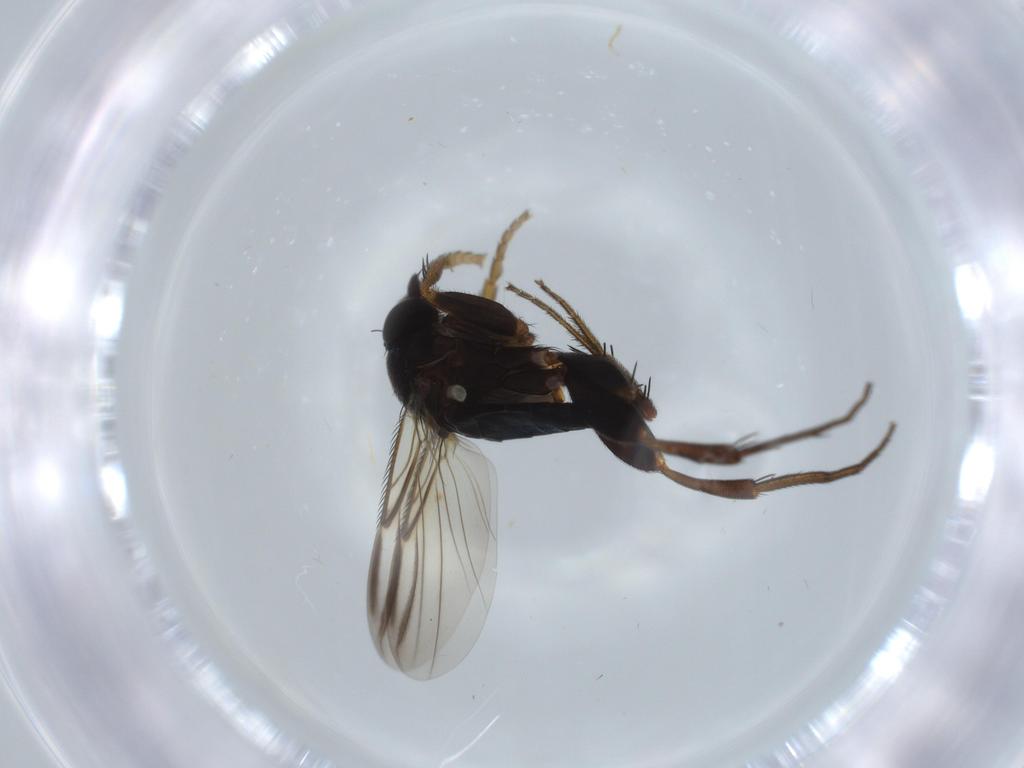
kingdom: Animalia
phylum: Arthropoda
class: Insecta
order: Diptera
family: Phoridae
